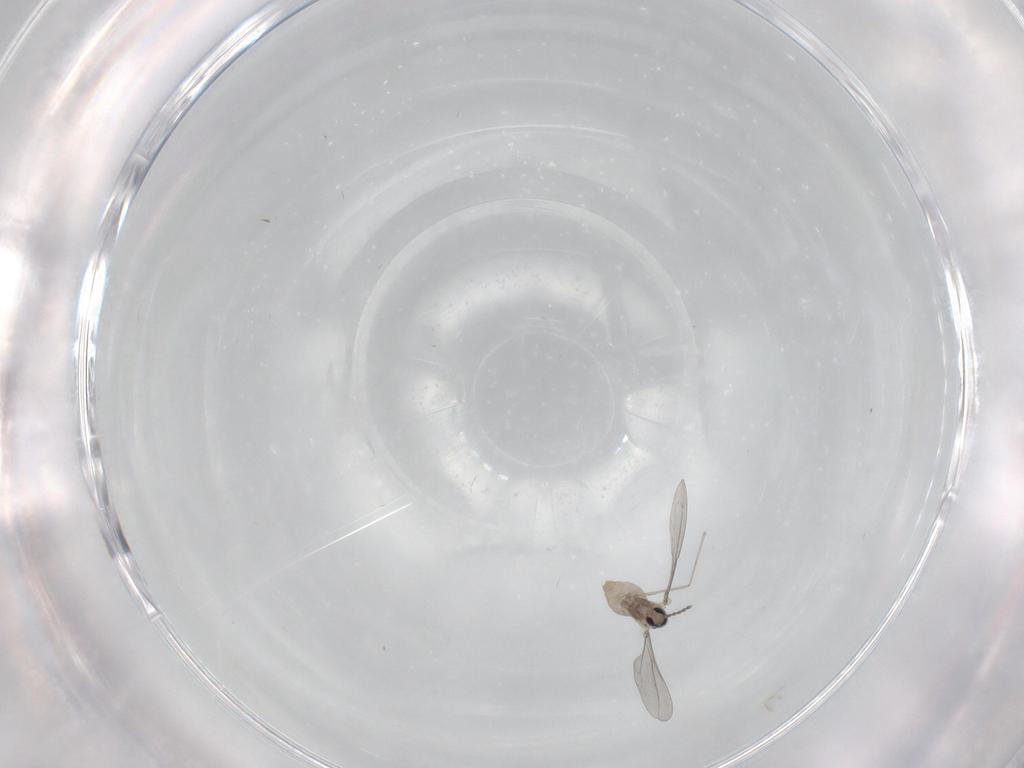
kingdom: Animalia
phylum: Arthropoda
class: Insecta
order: Diptera
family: Cecidomyiidae
